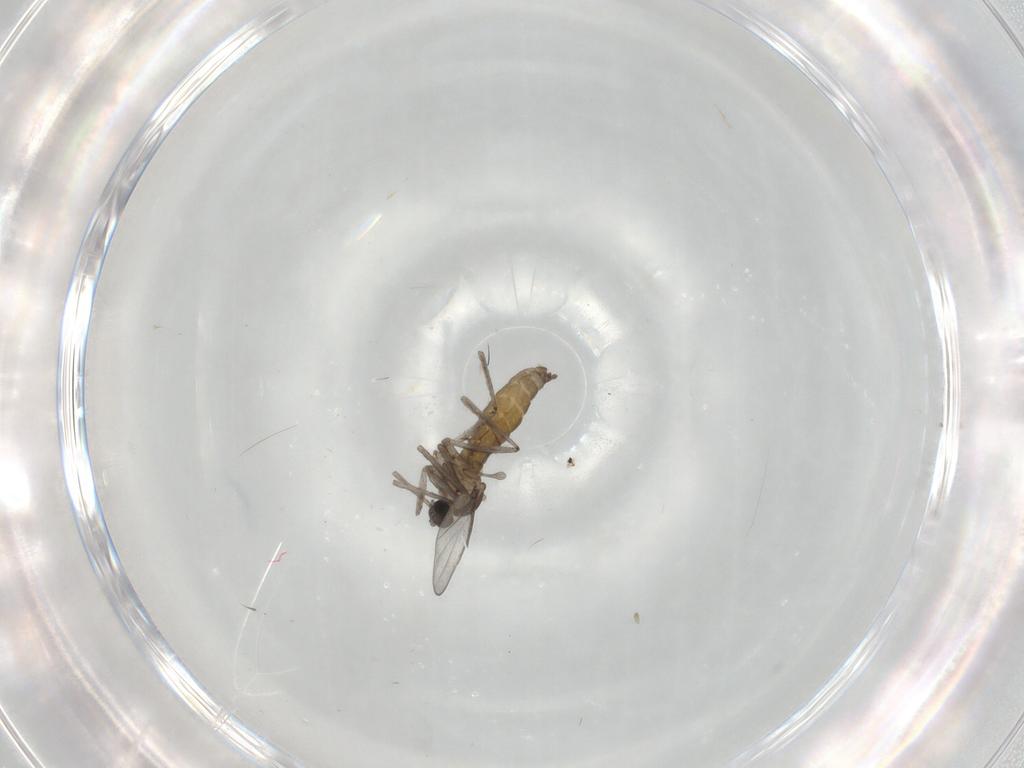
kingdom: Animalia
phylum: Arthropoda
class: Insecta
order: Diptera
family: Cecidomyiidae
